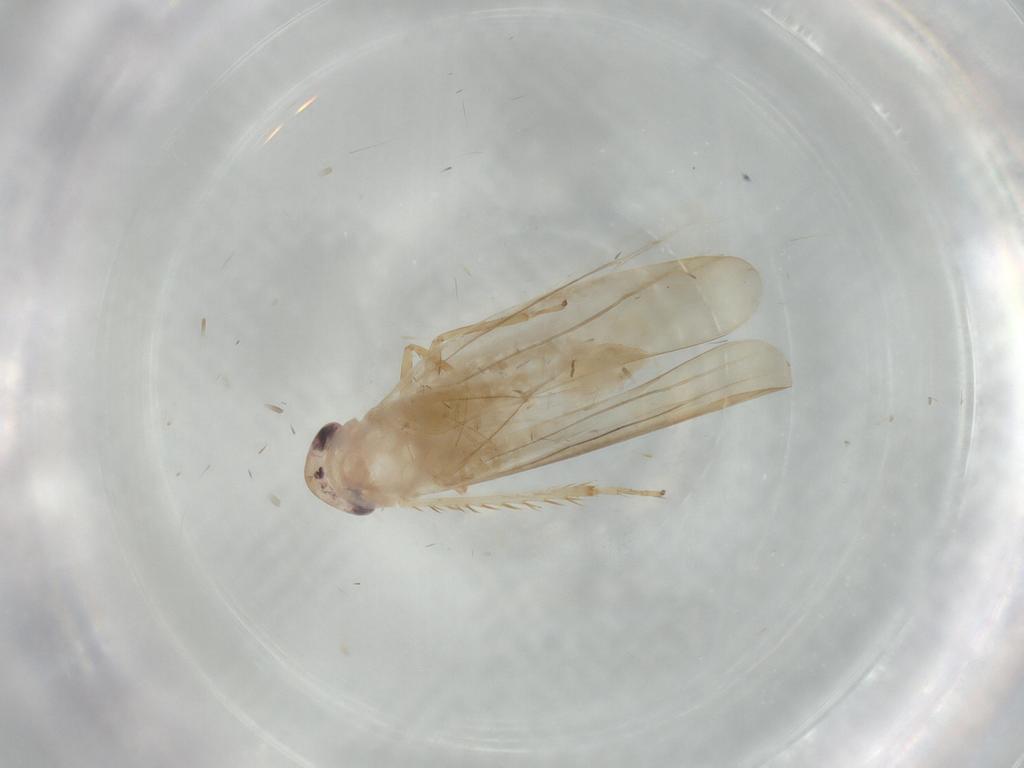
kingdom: Animalia
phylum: Arthropoda
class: Insecta
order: Hemiptera
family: Cicadellidae
